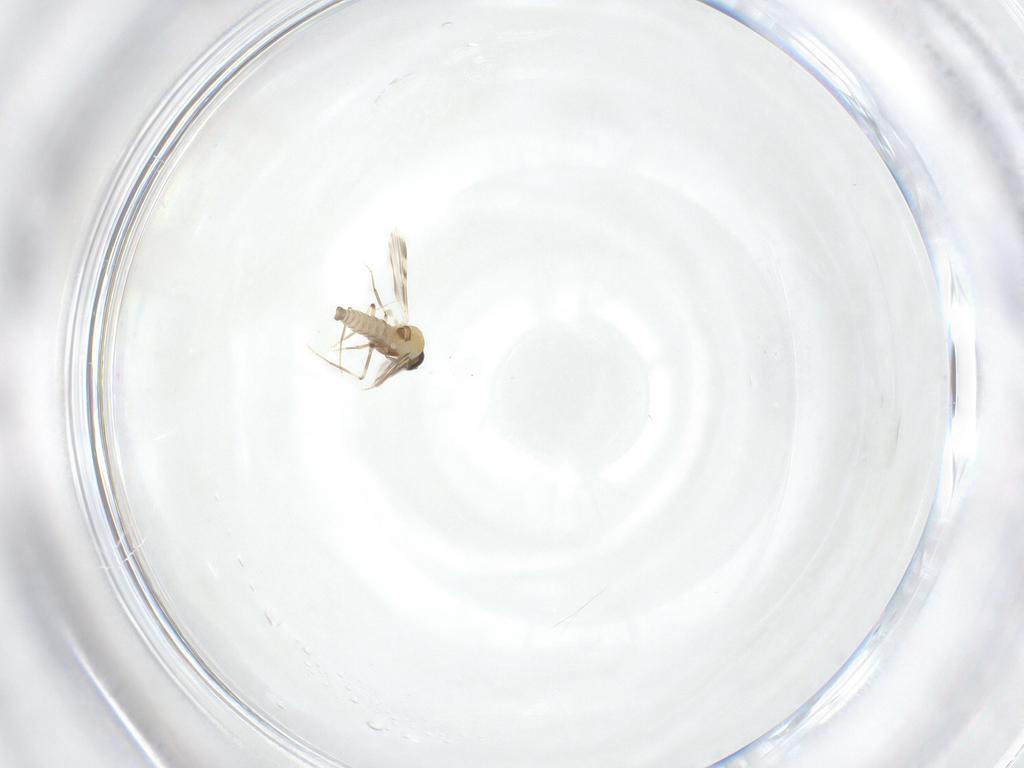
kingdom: Animalia
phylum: Arthropoda
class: Insecta
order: Diptera
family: Ceratopogonidae
